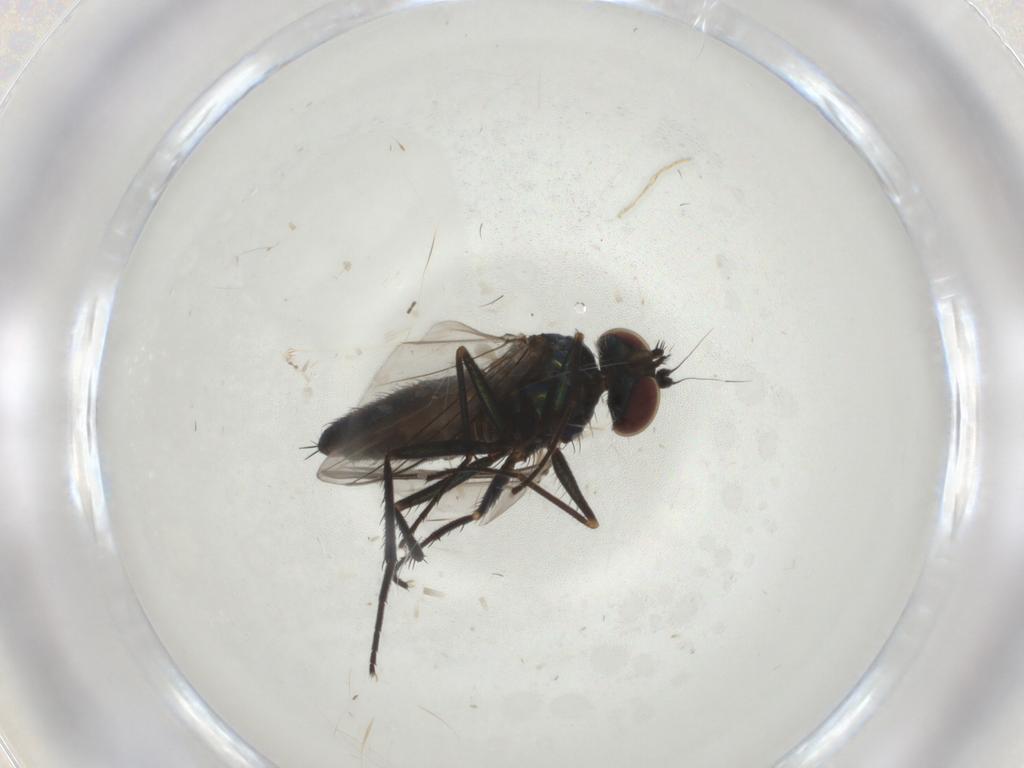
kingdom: Animalia
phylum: Arthropoda
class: Insecta
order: Diptera
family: Dolichopodidae
